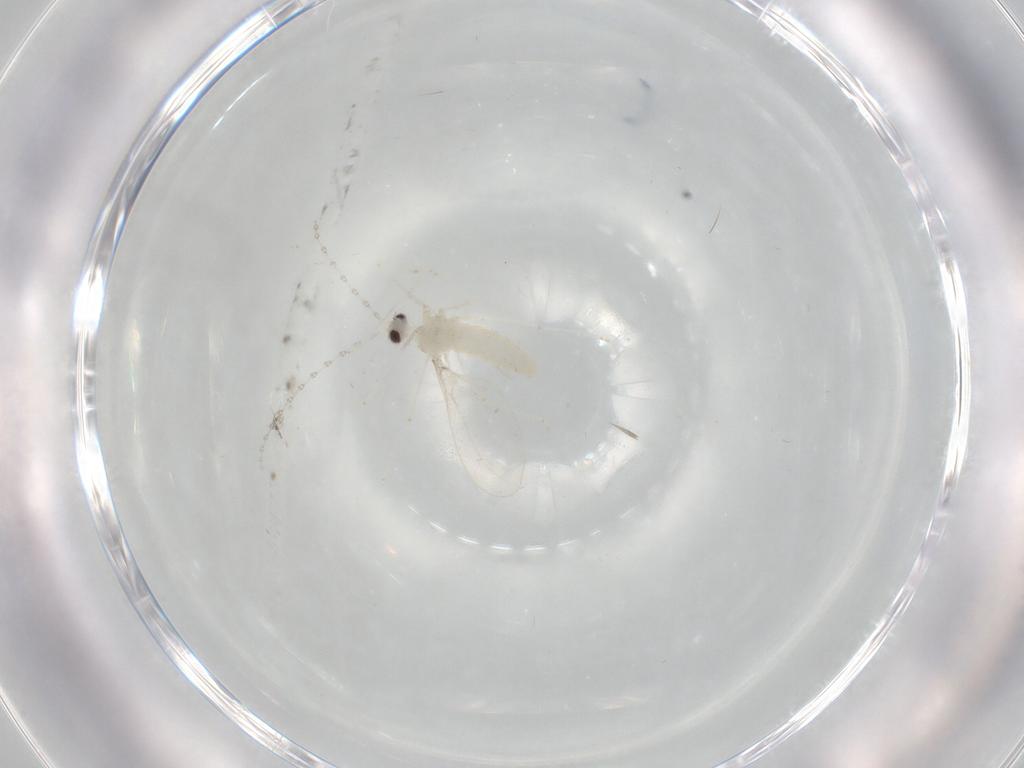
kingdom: Animalia
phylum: Arthropoda
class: Insecta
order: Diptera
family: Cecidomyiidae
